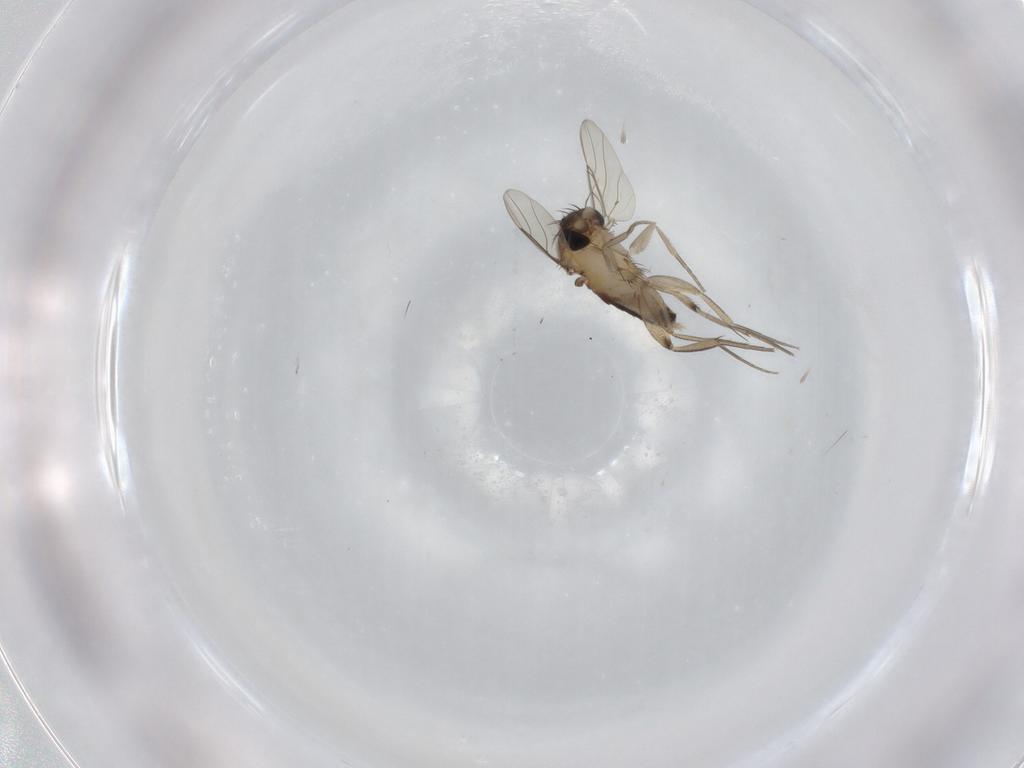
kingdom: Animalia
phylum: Arthropoda
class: Insecta
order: Diptera
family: Phoridae
